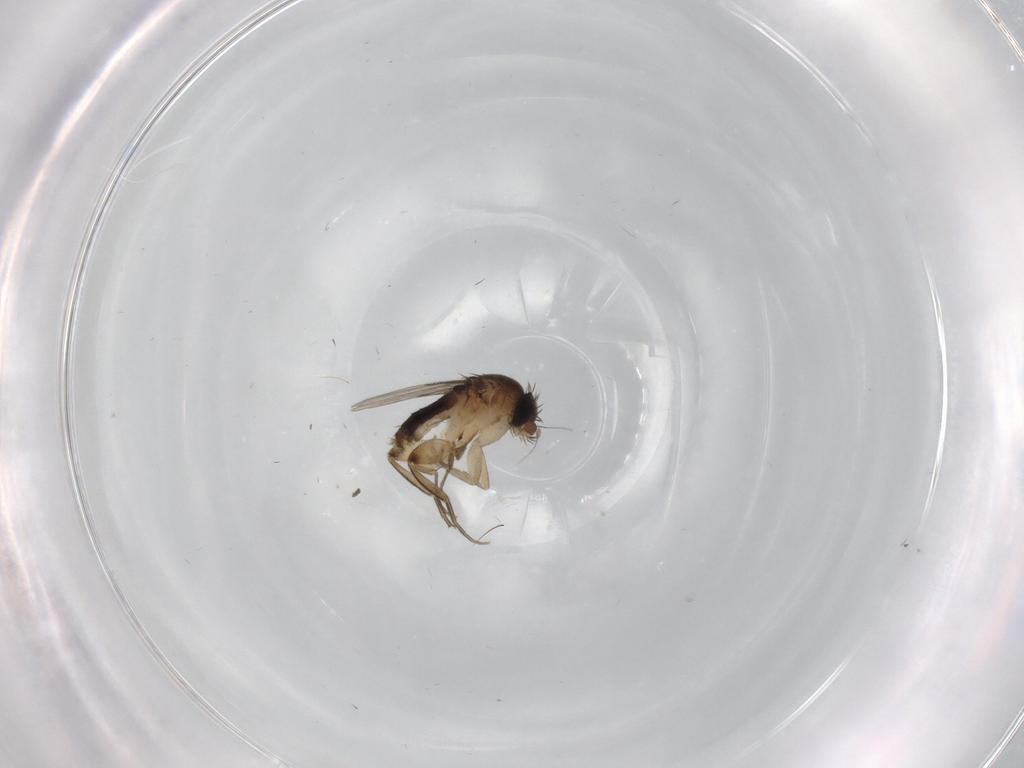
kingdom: Animalia
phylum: Arthropoda
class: Insecta
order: Diptera
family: Phoridae
